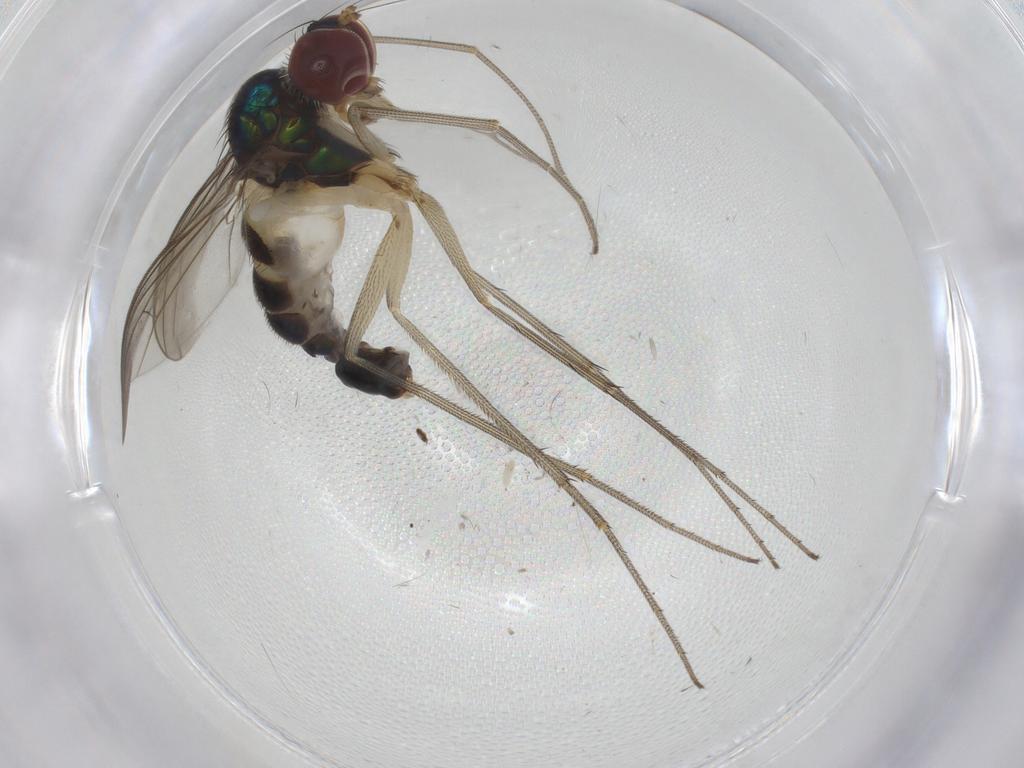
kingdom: Animalia
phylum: Arthropoda
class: Insecta
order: Diptera
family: Dolichopodidae
